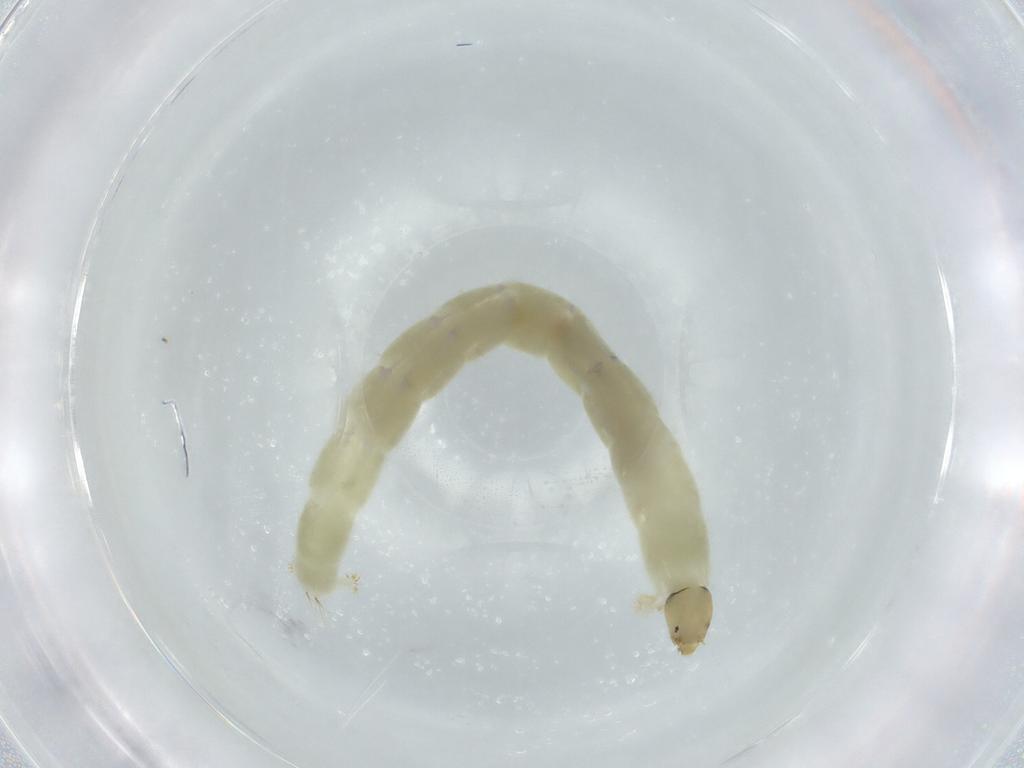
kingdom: Animalia
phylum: Arthropoda
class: Insecta
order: Diptera
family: Chironomidae
